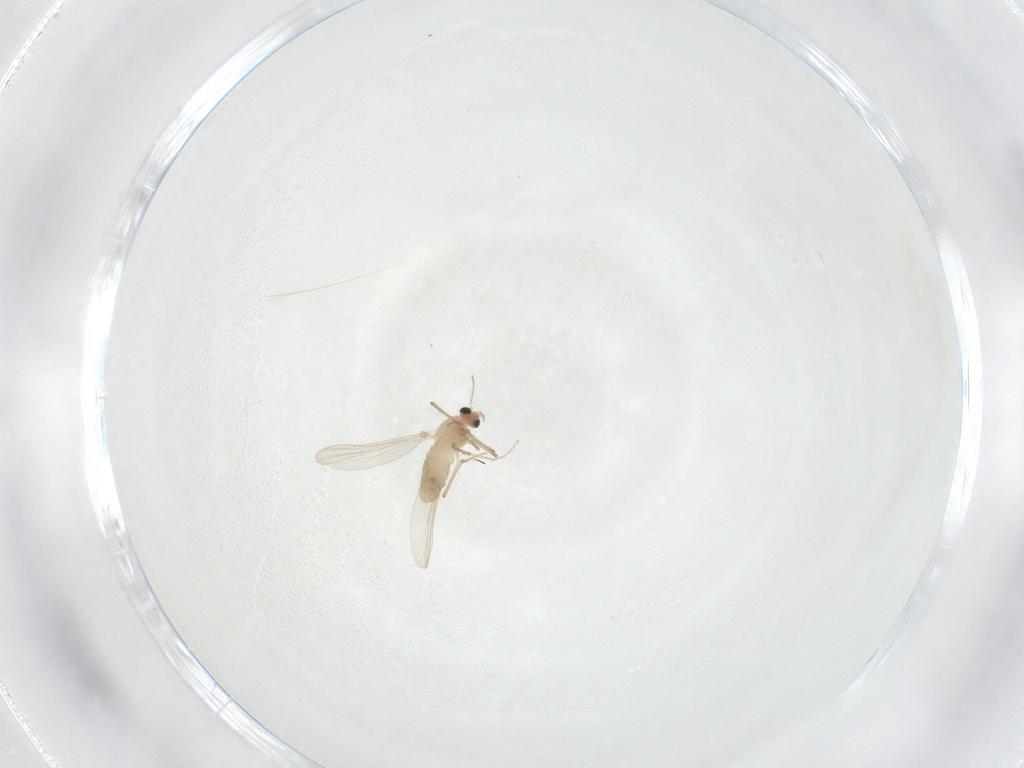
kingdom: Animalia
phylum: Arthropoda
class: Insecta
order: Diptera
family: Chironomidae
